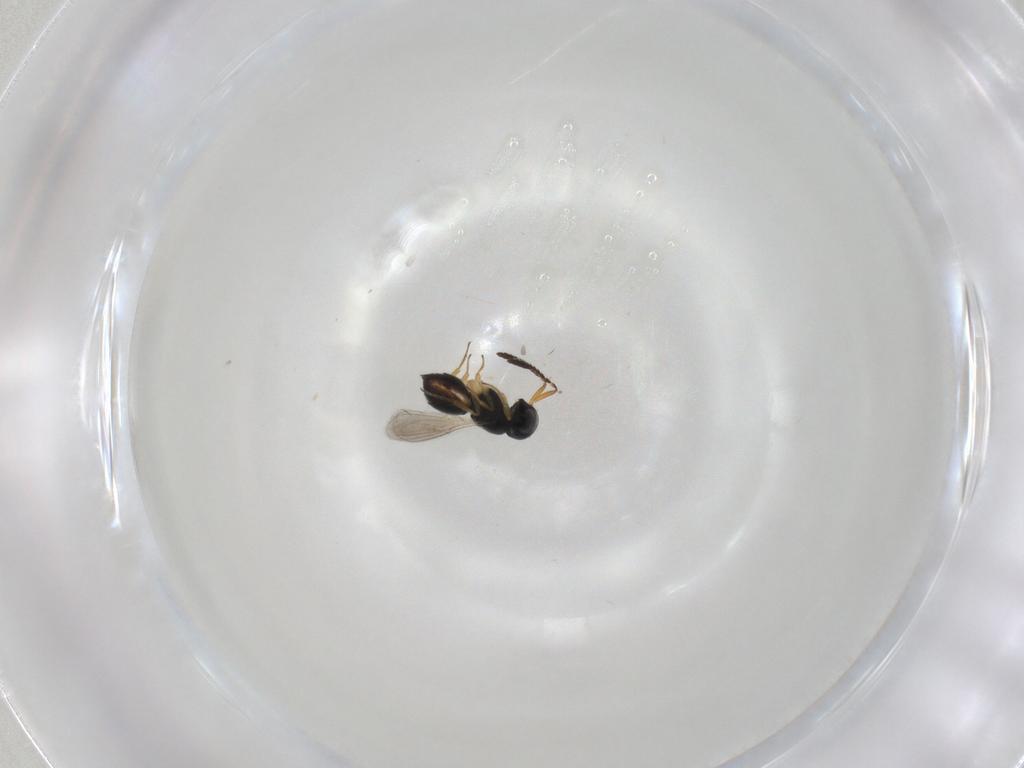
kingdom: Animalia
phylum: Arthropoda
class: Insecta
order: Hymenoptera
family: Scelionidae
